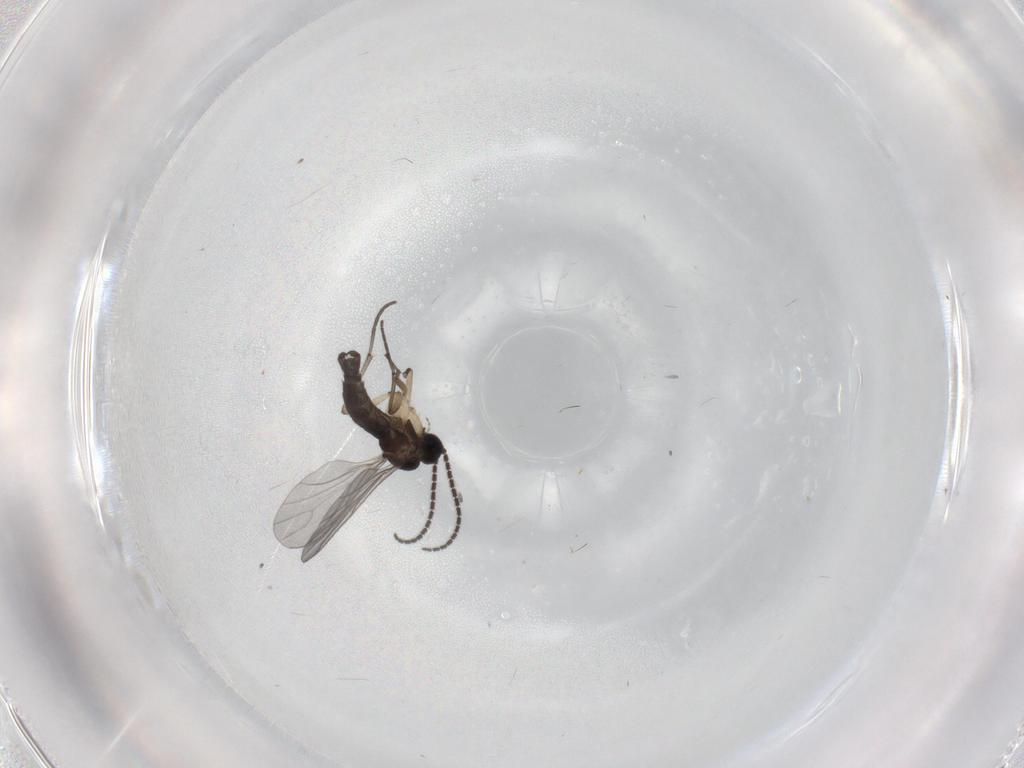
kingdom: Animalia
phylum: Arthropoda
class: Insecta
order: Diptera
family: Sciaridae
